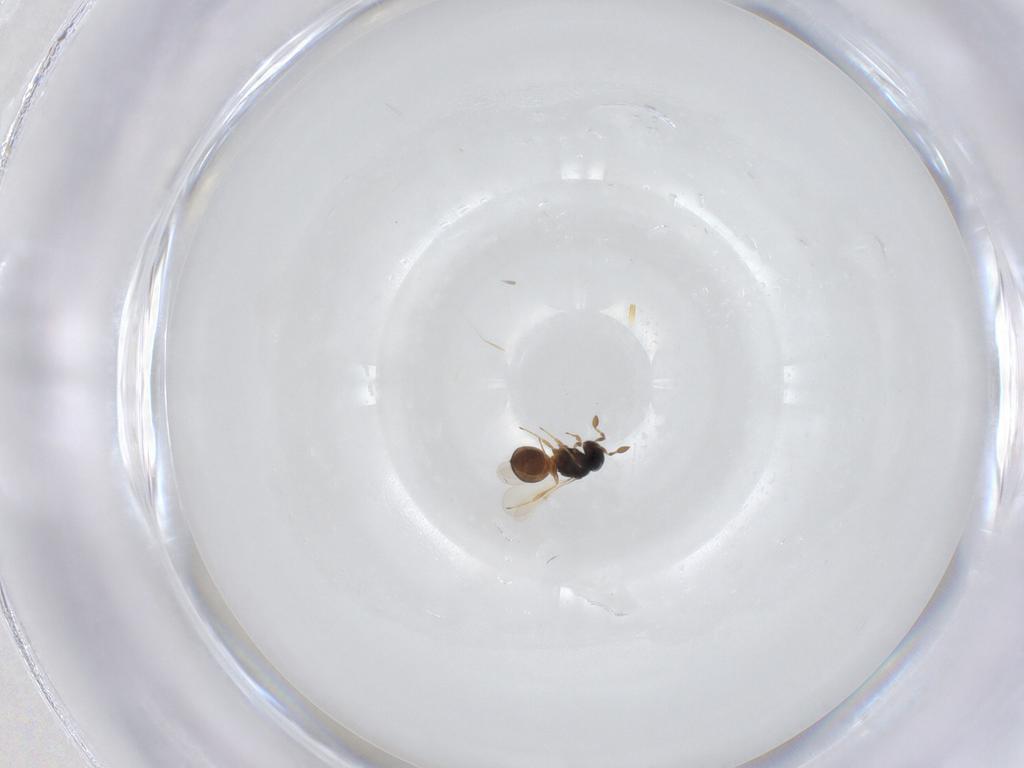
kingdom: Animalia
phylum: Arthropoda
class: Insecta
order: Hymenoptera
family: Scelionidae
